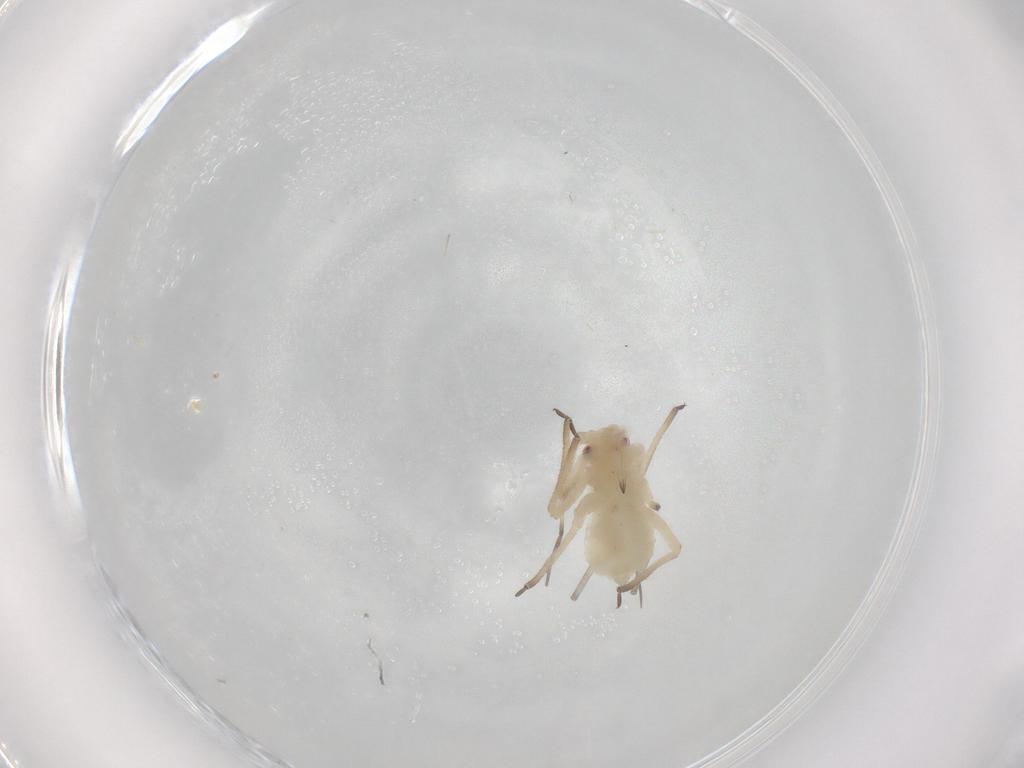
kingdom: Animalia
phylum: Arthropoda
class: Insecta
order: Hemiptera
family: Aphididae
